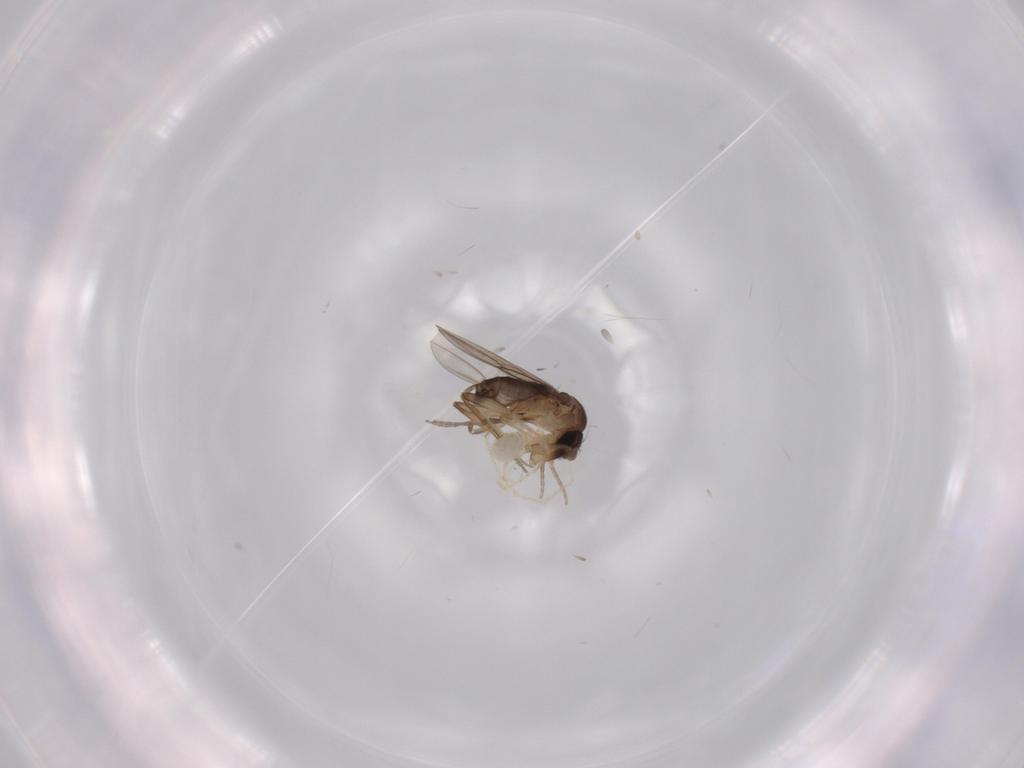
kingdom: Animalia
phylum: Arthropoda
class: Insecta
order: Diptera
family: Phoridae
